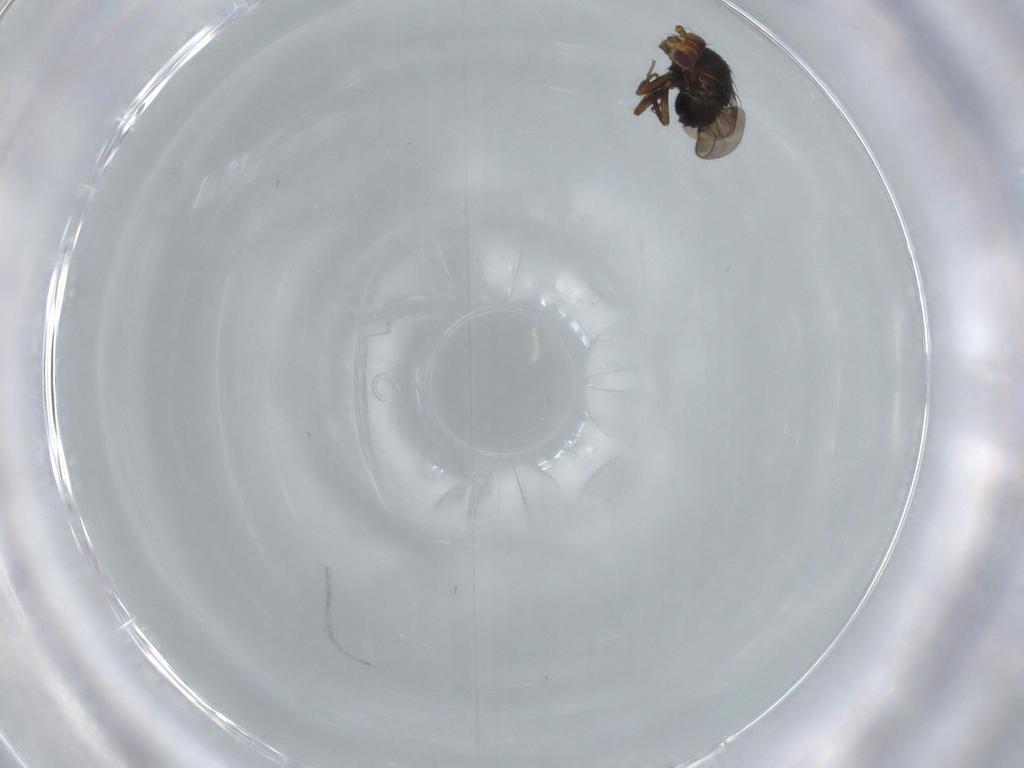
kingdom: Animalia
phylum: Arthropoda
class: Insecta
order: Diptera
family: Sphaeroceridae
